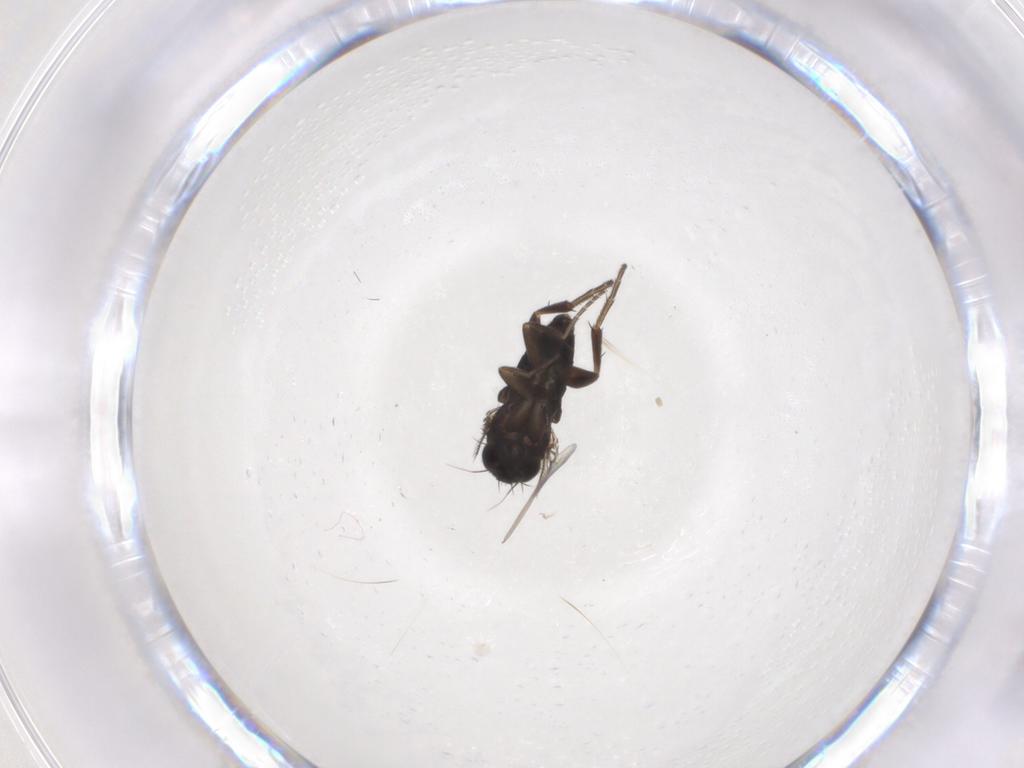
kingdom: Animalia
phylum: Arthropoda
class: Insecta
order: Diptera
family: Phoridae
